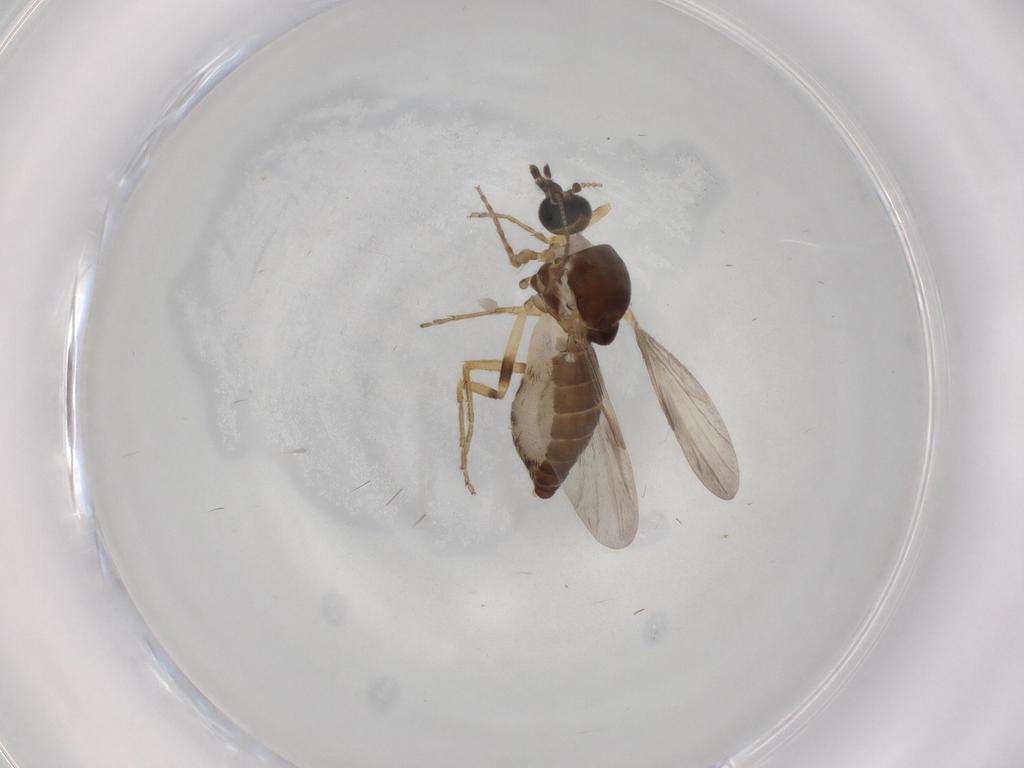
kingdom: Animalia
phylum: Arthropoda
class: Insecta
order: Diptera
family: Ceratopogonidae
